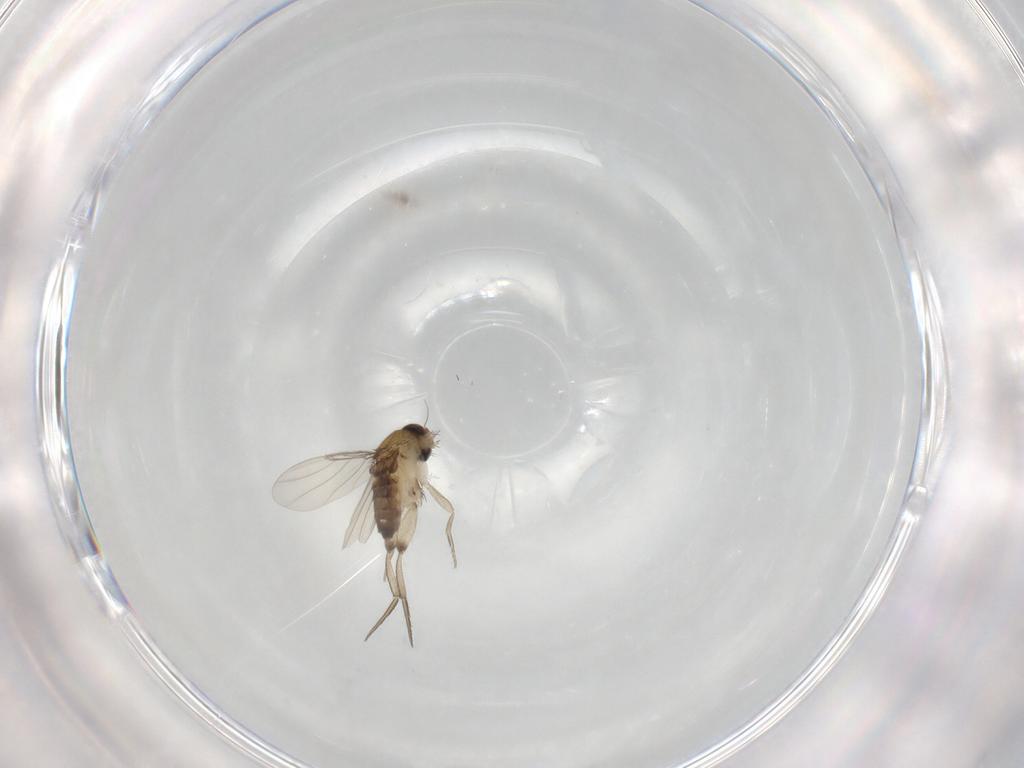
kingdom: Animalia
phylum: Arthropoda
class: Insecta
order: Diptera
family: Phoridae
